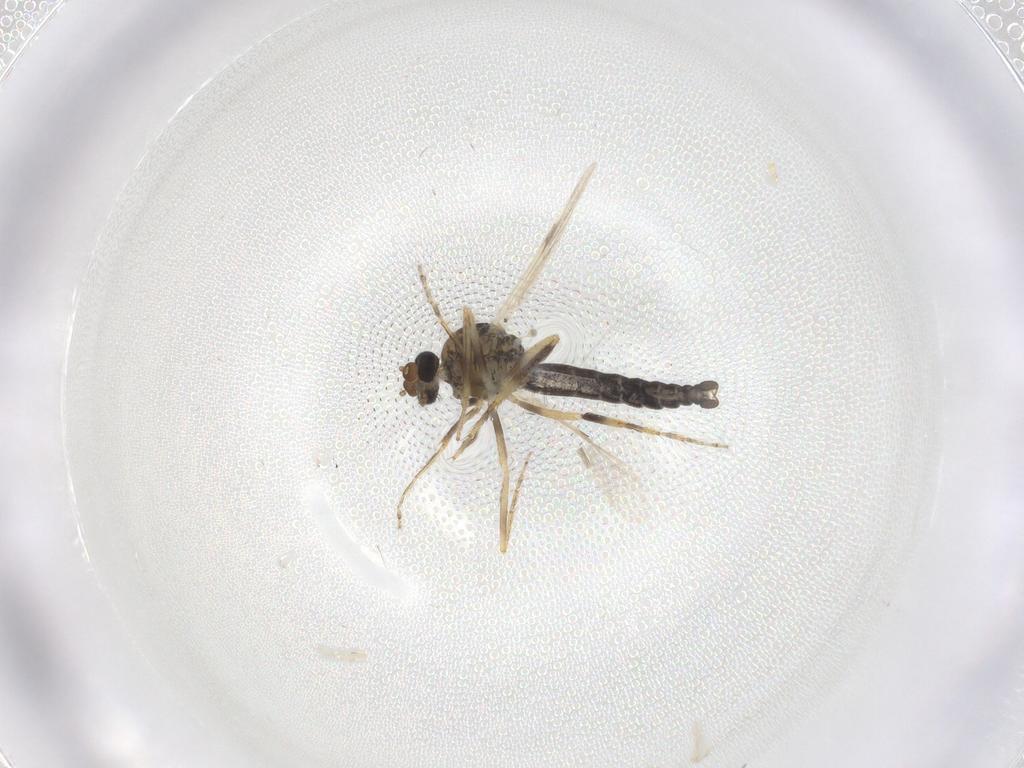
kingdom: Animalia
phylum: Arthropoda
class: Insecta
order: Diptera
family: Ceratopogonidae
